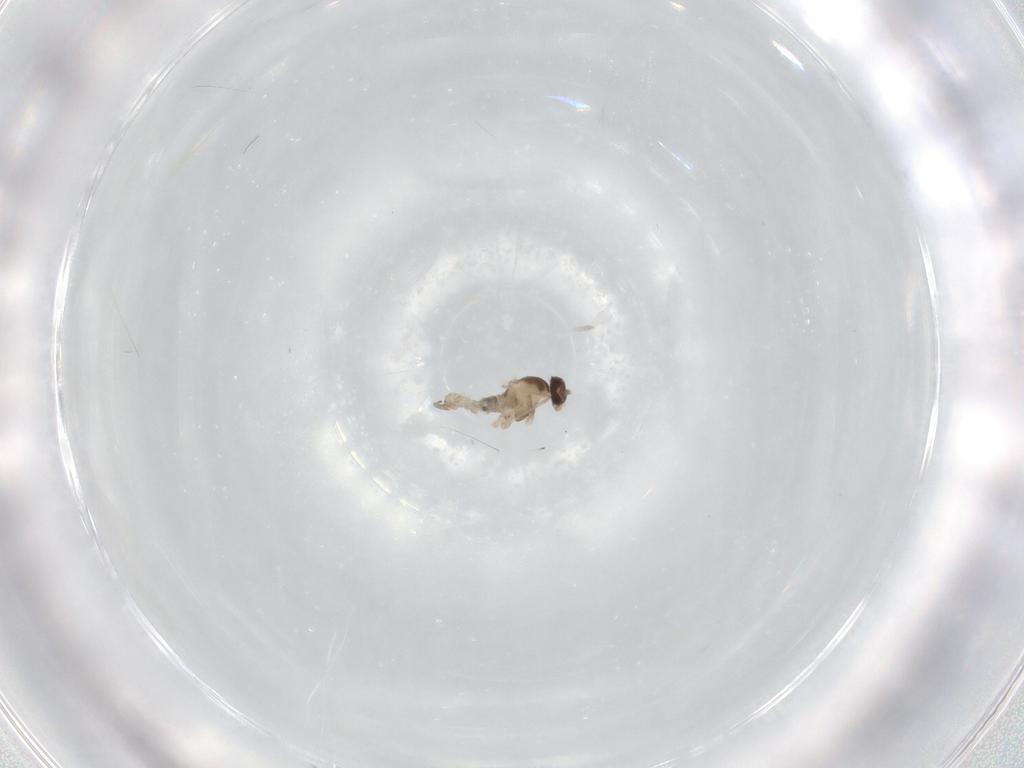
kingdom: Animalia
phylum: Arthropoda
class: Insecta
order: Diptera
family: Cecidomyiidae
